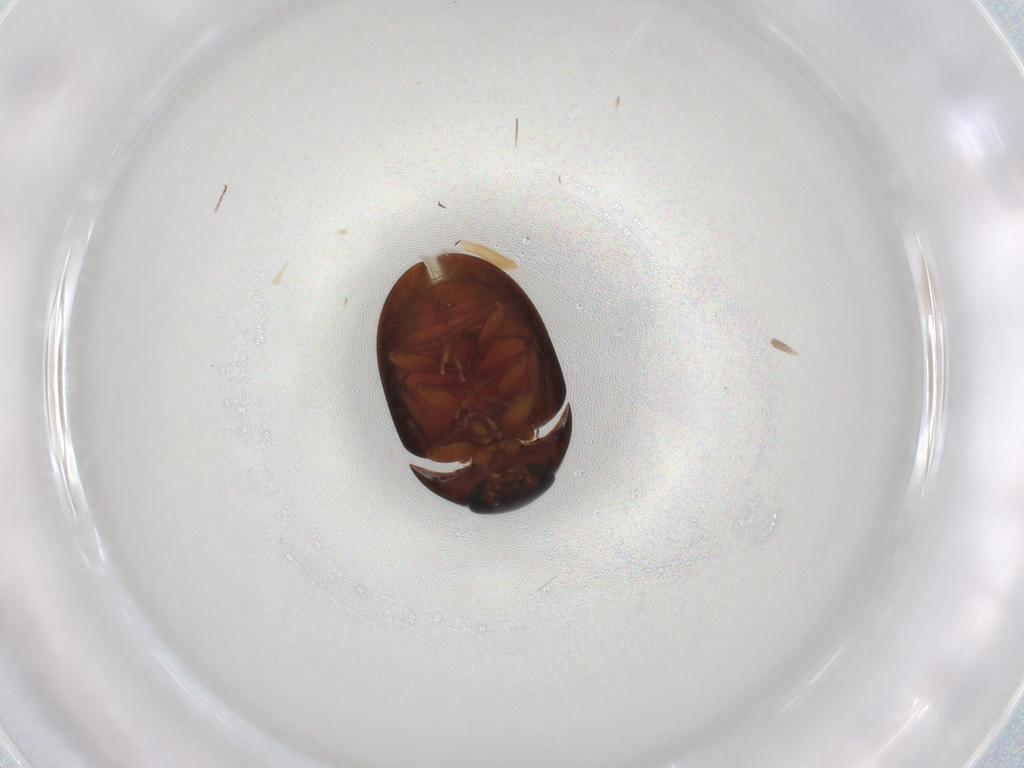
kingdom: Animalia
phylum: Arthropoda
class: Insecta
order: Coleoptera
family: Phalacridae
